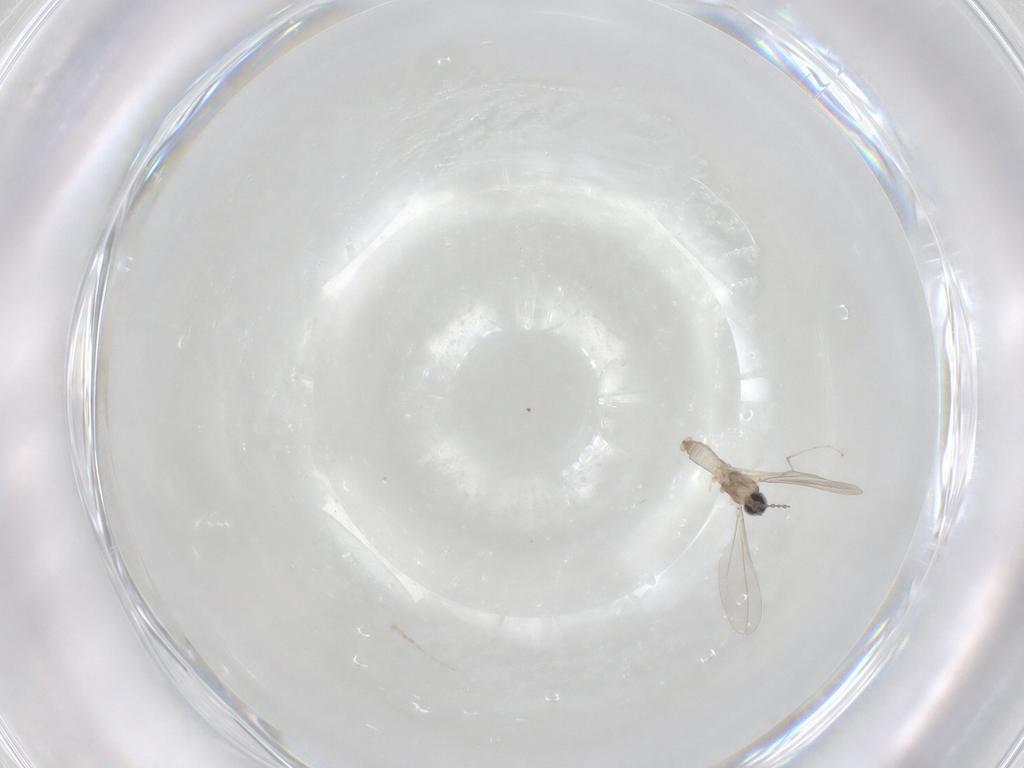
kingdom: Animalia
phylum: Arthropoda
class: Insecta
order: Diptera
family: Cecidomyiidae
